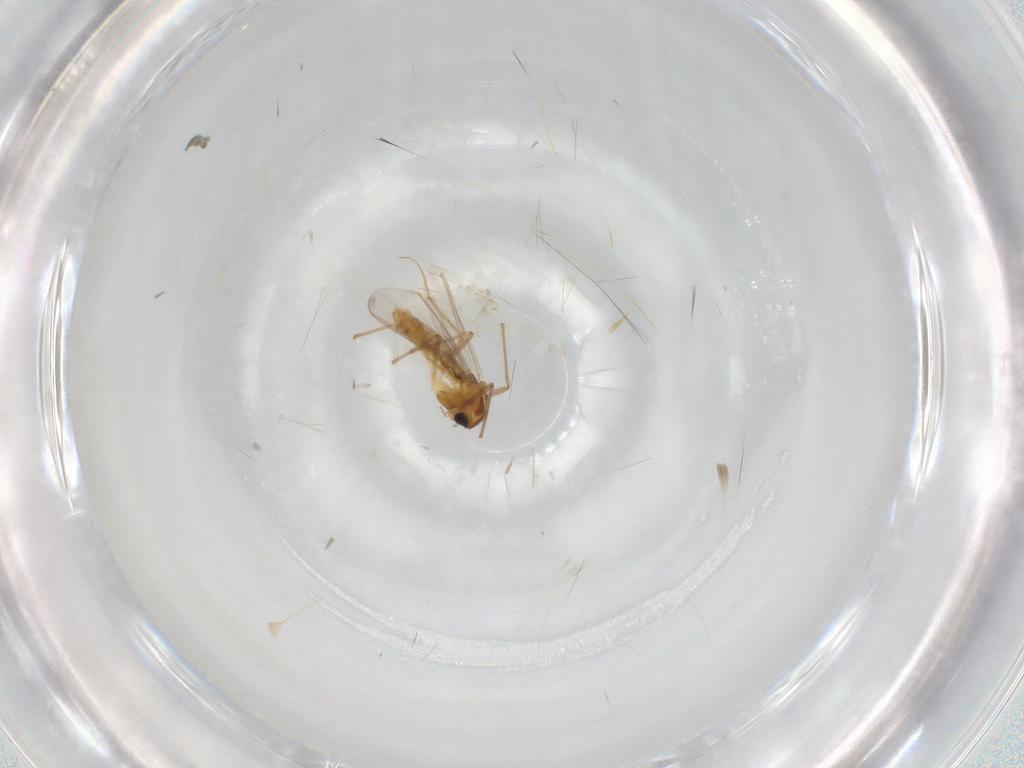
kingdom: Animalia
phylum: Arthropoda
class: Insecta
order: Diptera
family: Chironomidae
